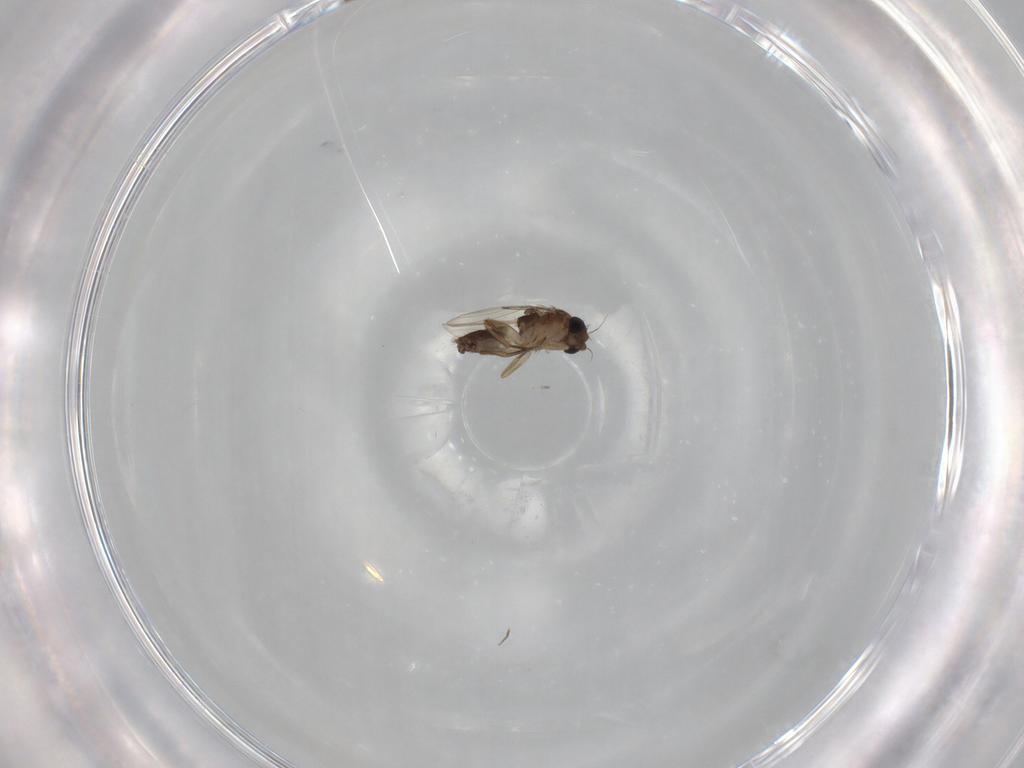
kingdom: Animalia
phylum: Arthropoda
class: Insecta
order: Diptera
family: Phoridae
